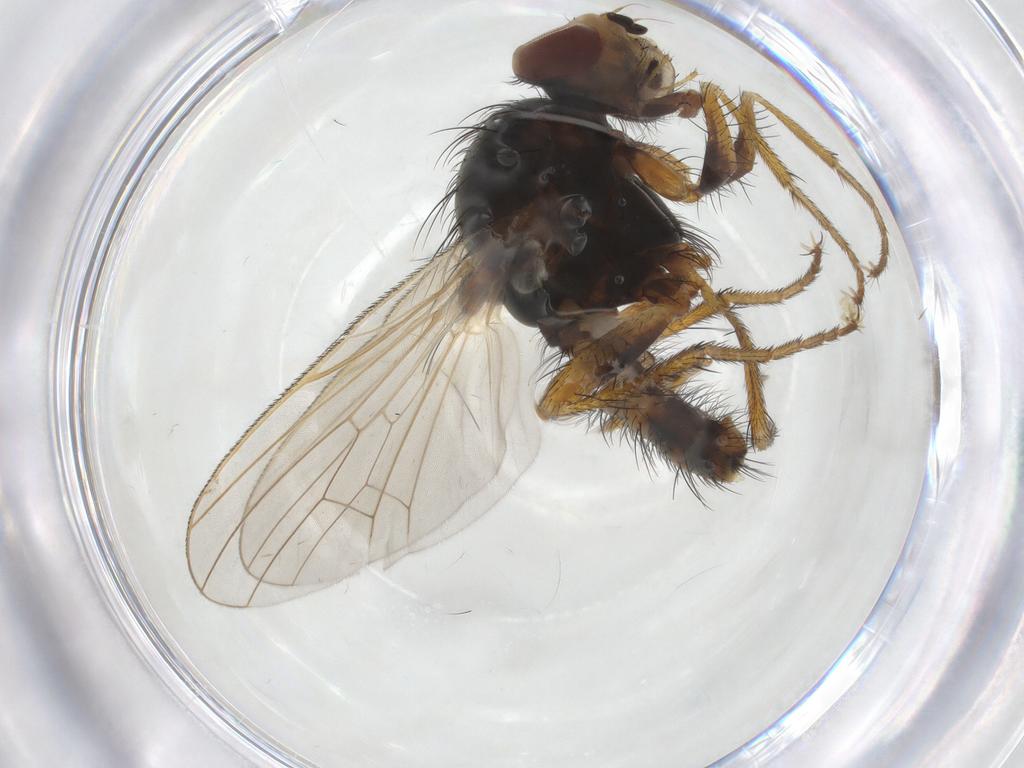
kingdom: Animalia
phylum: Arthropoda
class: Insecta
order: Diptera
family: Anthomyiidae
